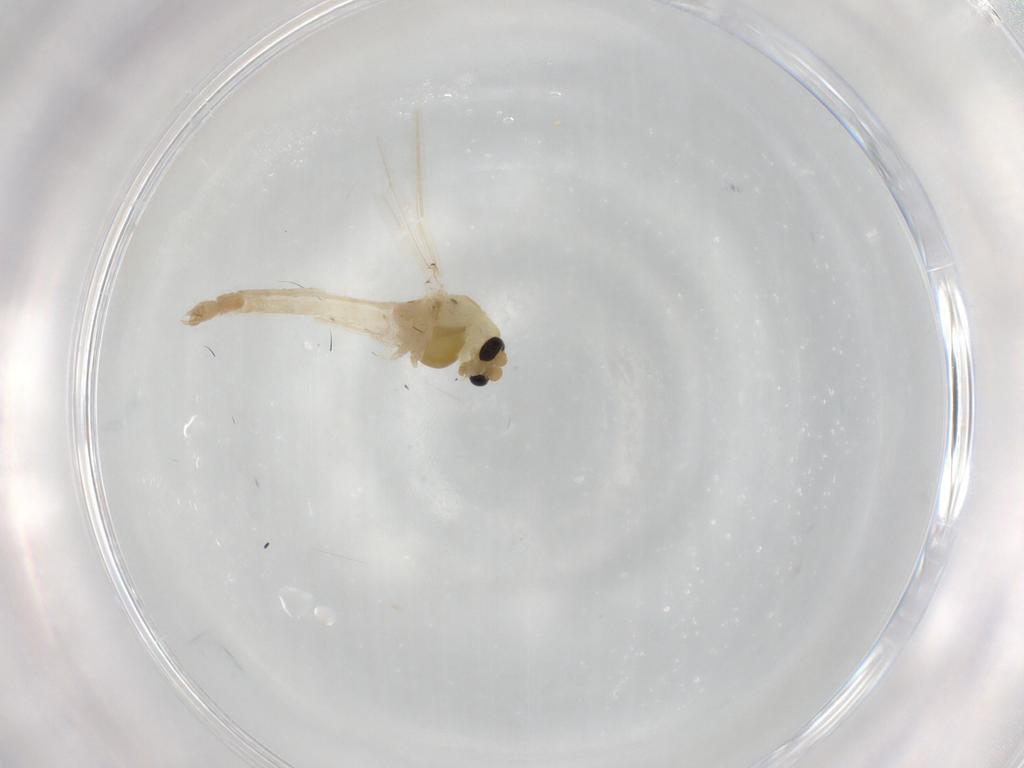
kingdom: Animalia
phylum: Arthropoda
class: Insecta
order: Diptera
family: Chironomidae
